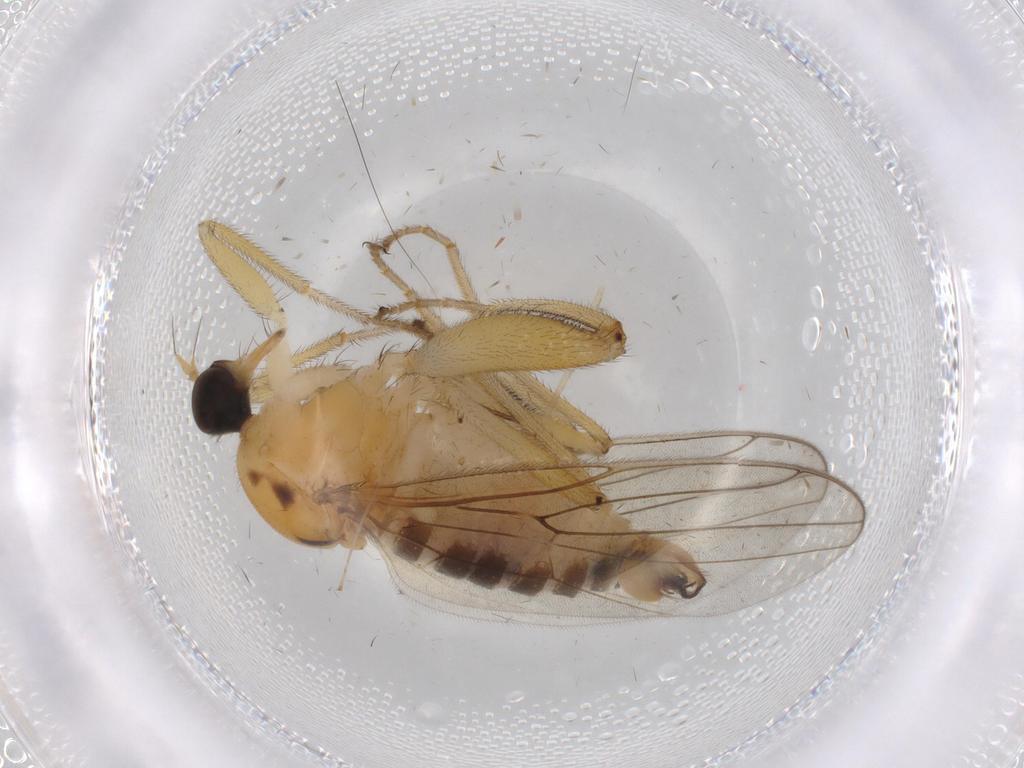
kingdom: Animalia
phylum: Arthropoda
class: Insecta
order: Diptera
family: Hybotidae
